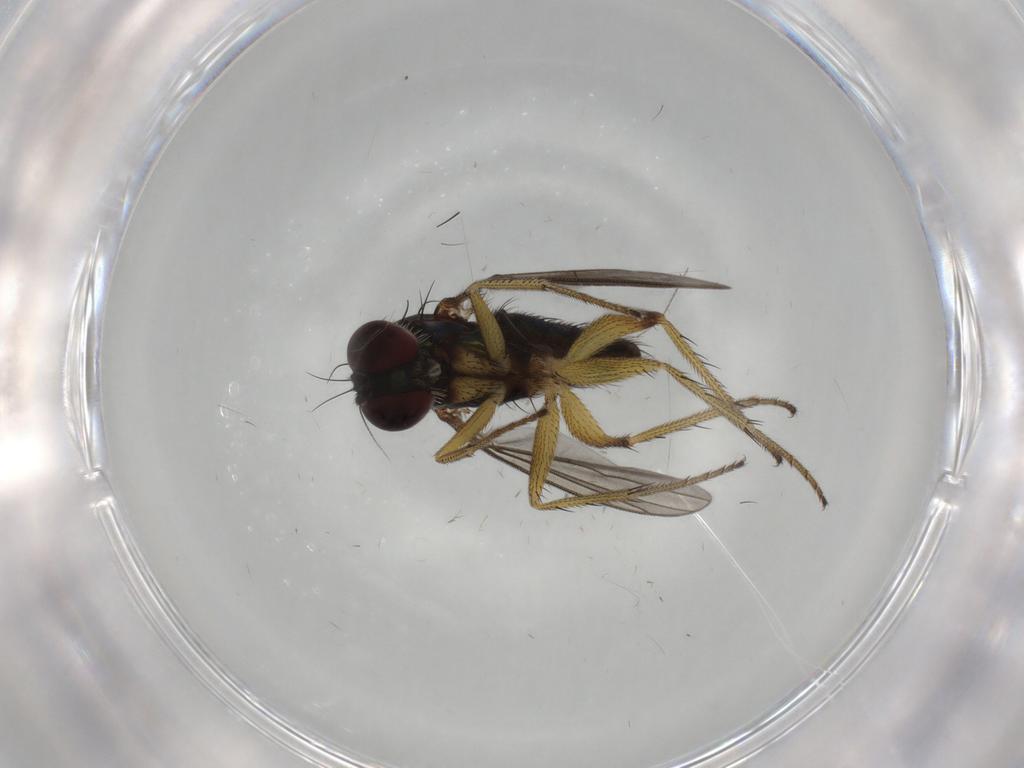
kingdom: Animalia
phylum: Arthropoda
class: Insecta
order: Diptera
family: Dolichopodidae
